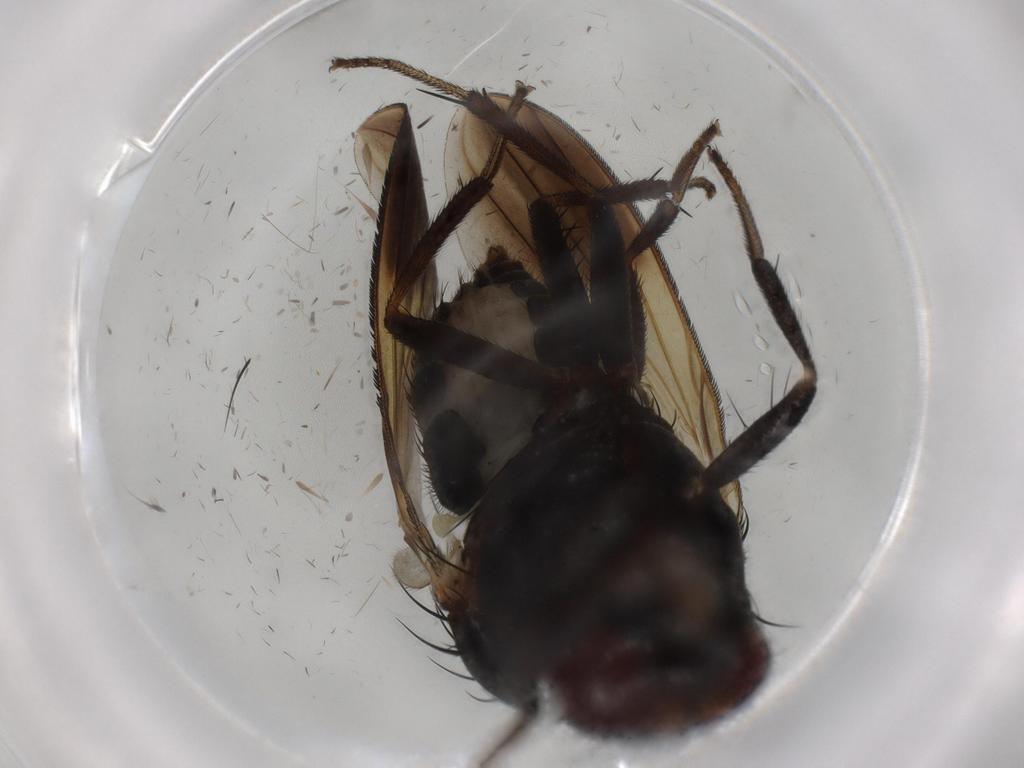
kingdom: Animalia
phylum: Arthropoda
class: Insecta
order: Diptera
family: Lauxaniidae
